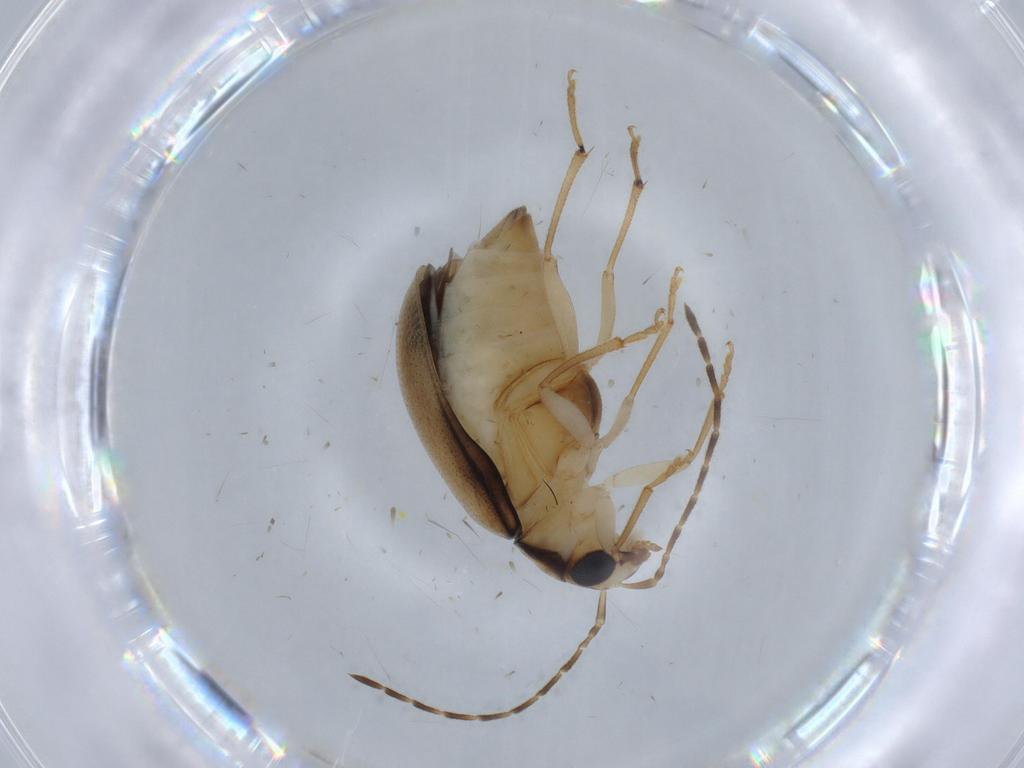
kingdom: Animalia
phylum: Arthropoda
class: Insecta
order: Coleoptera
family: Chrysomelidae
